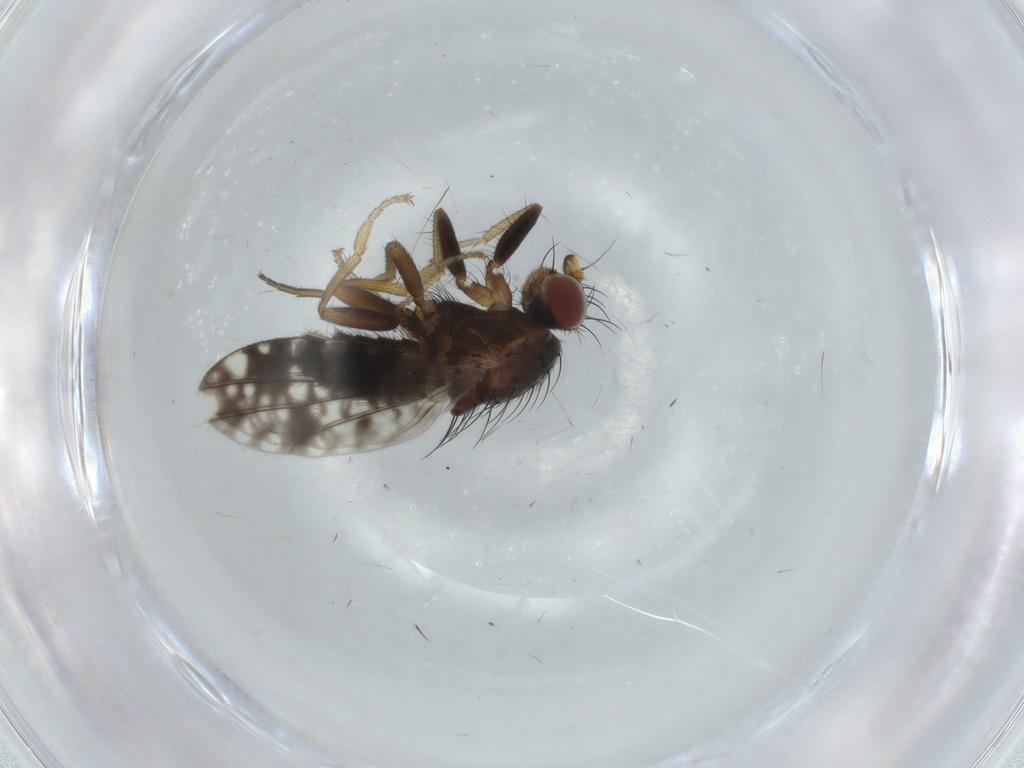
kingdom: Animalia
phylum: Arthropoda
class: Insecta
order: Diptera
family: Tephritidae
